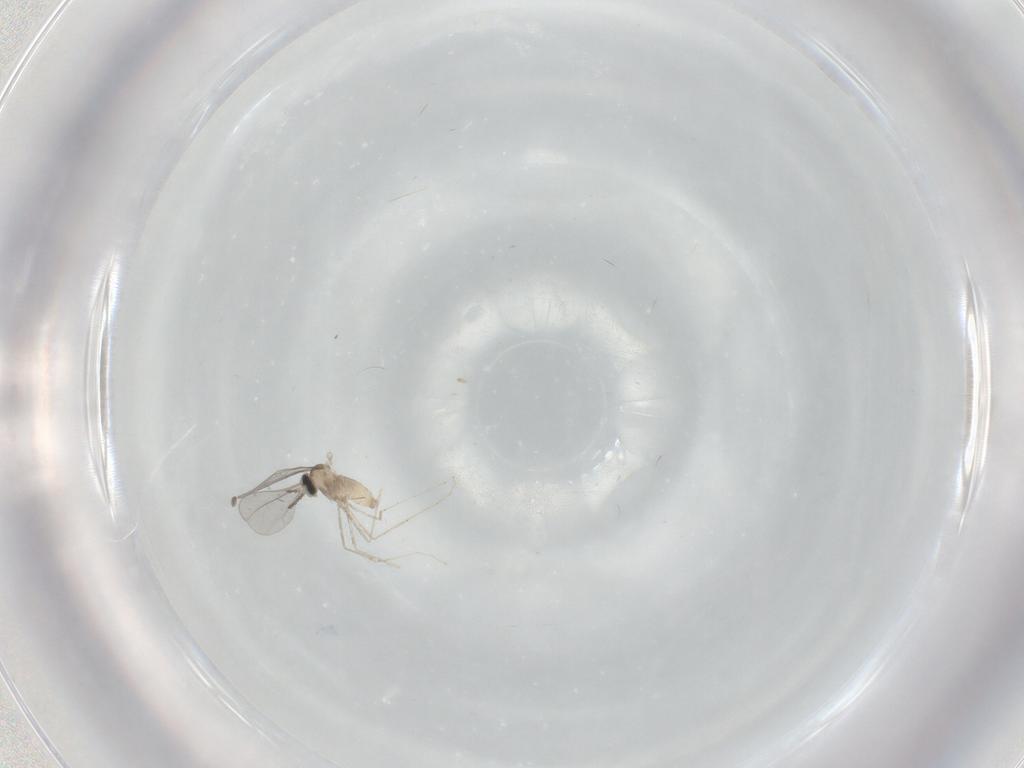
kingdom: Animalia
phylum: Arthropoda
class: Insecta
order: Diptera
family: Cecidomyiidae
